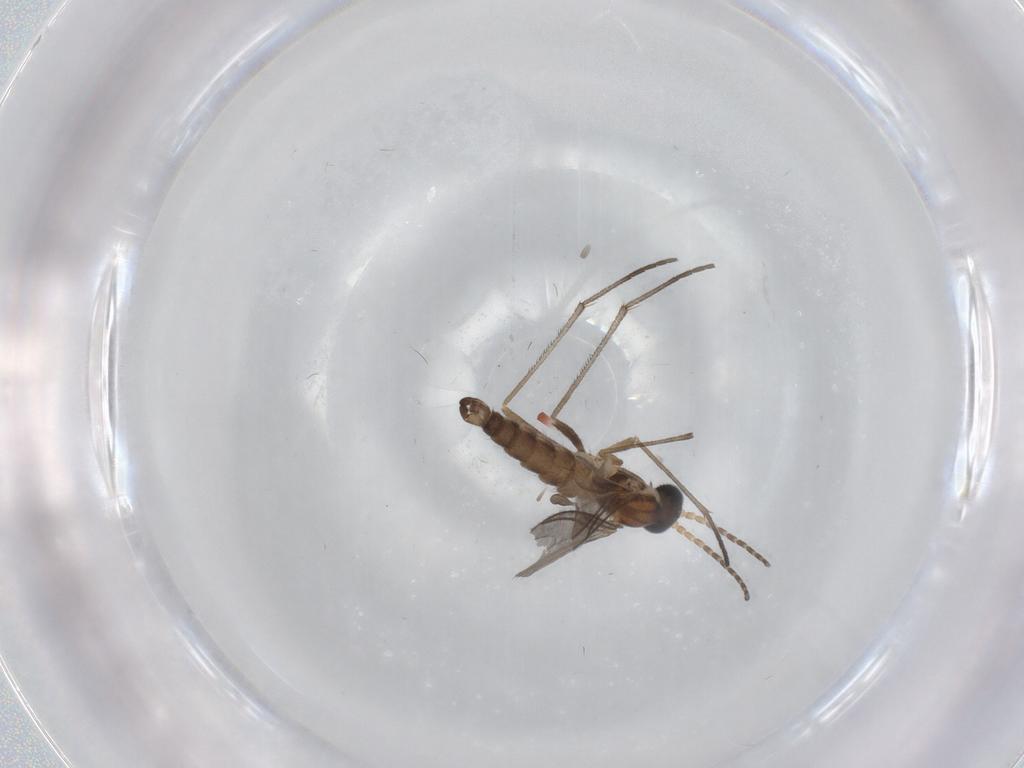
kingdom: Animalia
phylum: Arthropoda
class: Insecta
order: Diptera
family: Sciaridae
